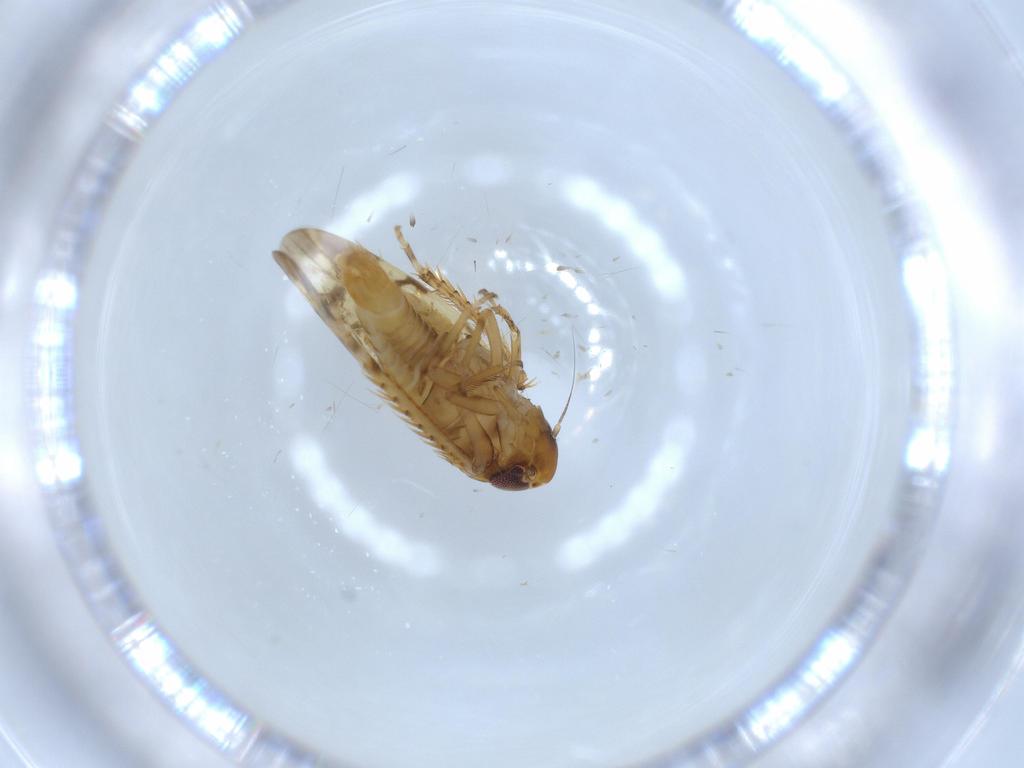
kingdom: Animalia
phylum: Arthropoda
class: Insecta
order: Hemiptera
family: Cicadellidae
